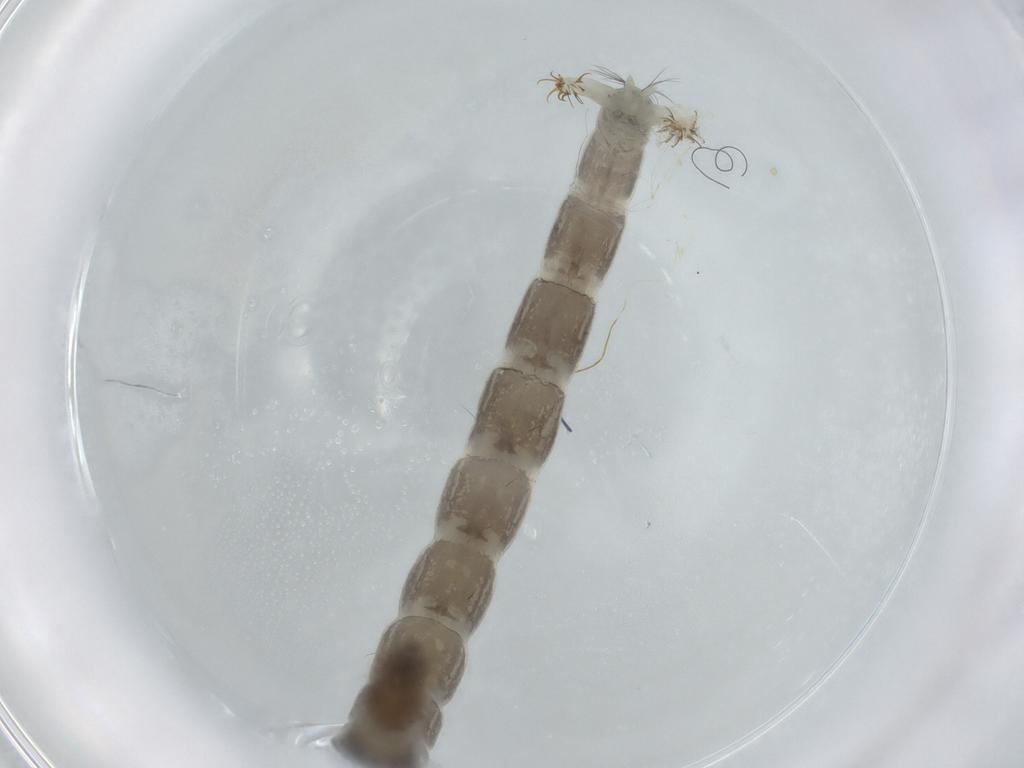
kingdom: Animalia
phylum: Arthropoda
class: Insecta
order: Diptera
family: Chironomidae
